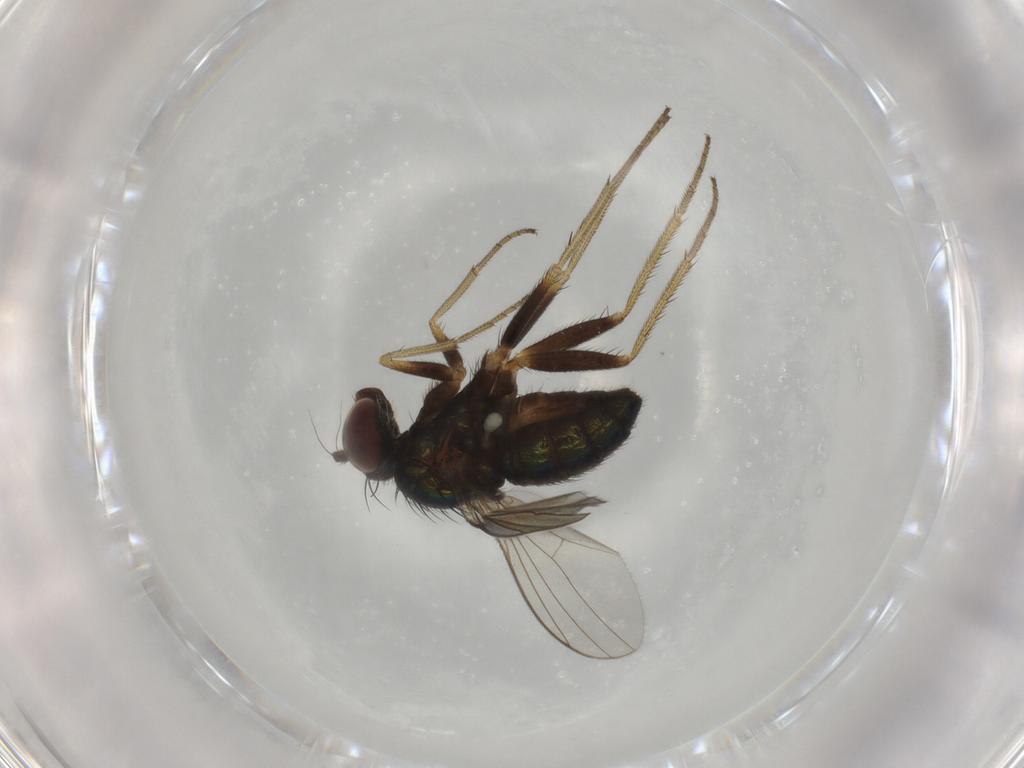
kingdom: Animalia
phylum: Arthropoda
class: Insecta
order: Diptera
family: Dolichopodidae
